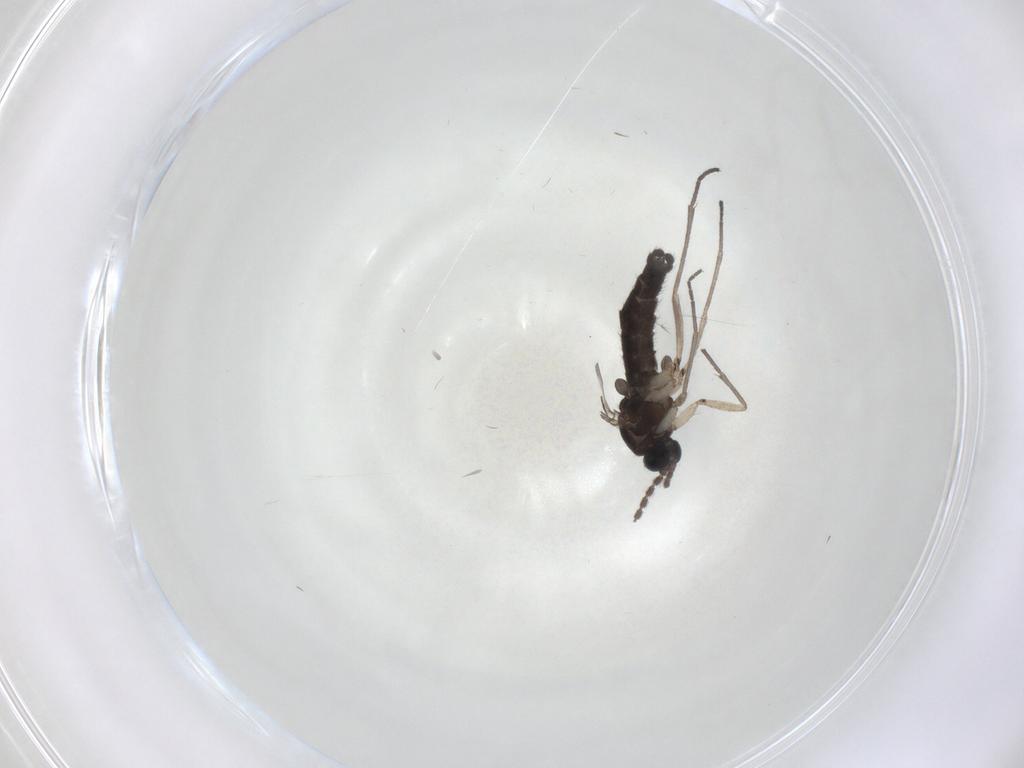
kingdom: Animalia
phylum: Arthropoda
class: Insecta
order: Diptera
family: Sciaridae
